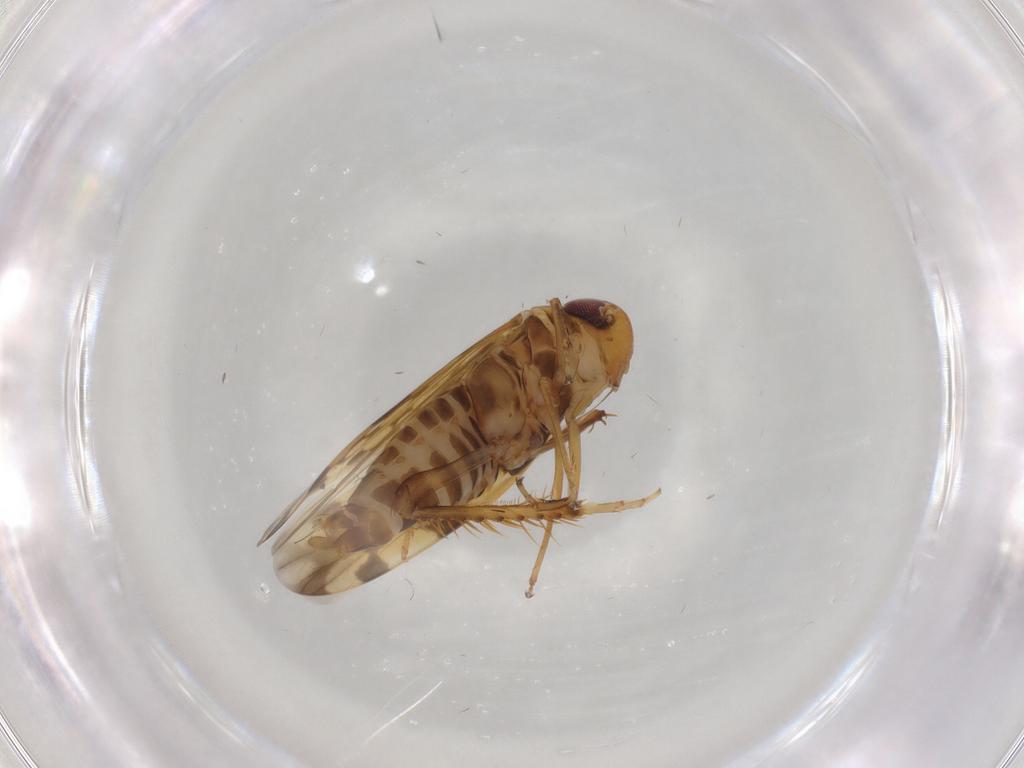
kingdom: Animalia
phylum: Arthropoda
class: Insecta
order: Hemiptera
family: Cicadellidae
